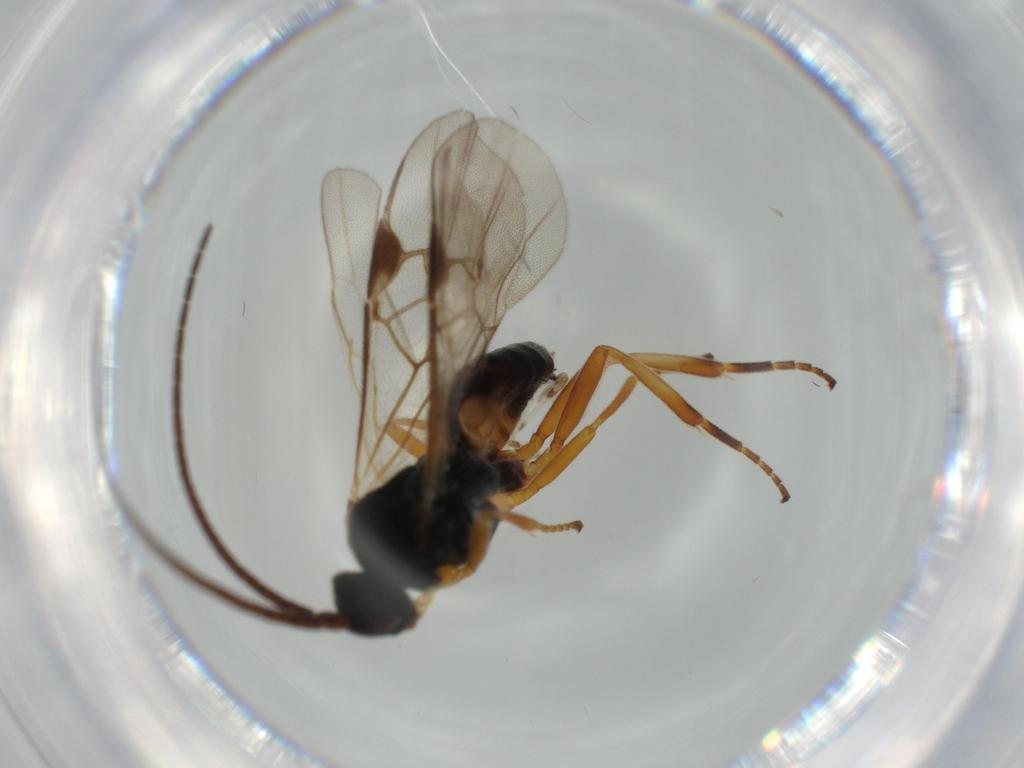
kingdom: Animalia
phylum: Arthropoda
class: Insecta
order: Hymenoptera
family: Braconidae
